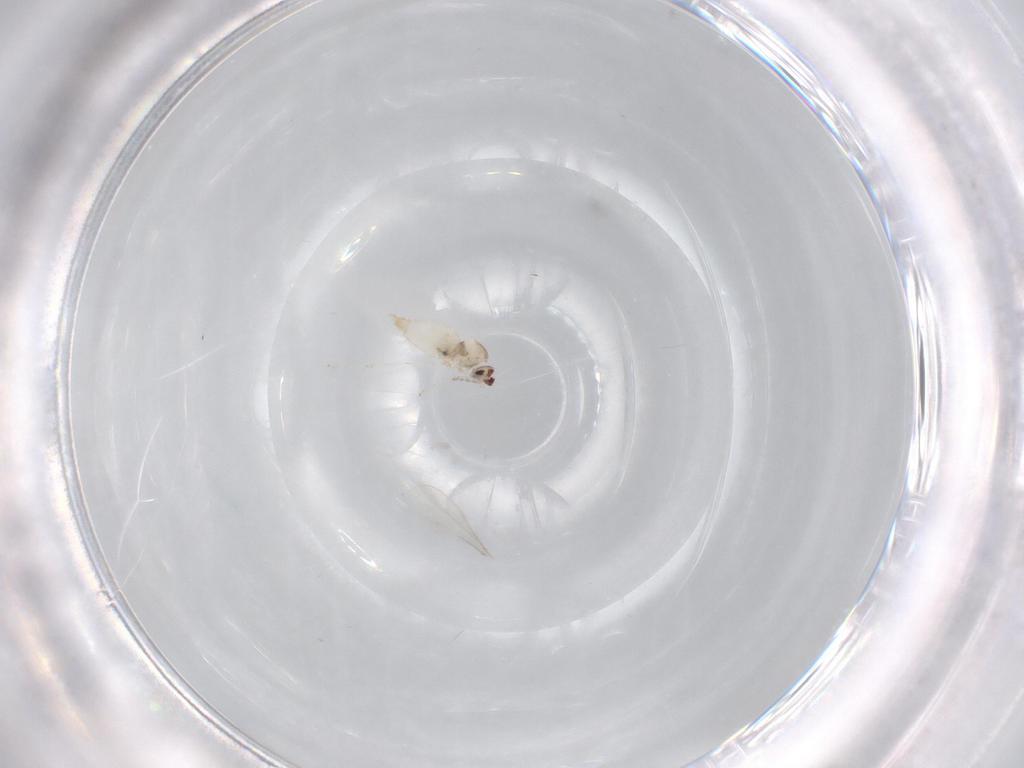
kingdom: Animalia
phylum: Arthropoda
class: Insecta
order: Diptera
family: Cecidomyiidae
